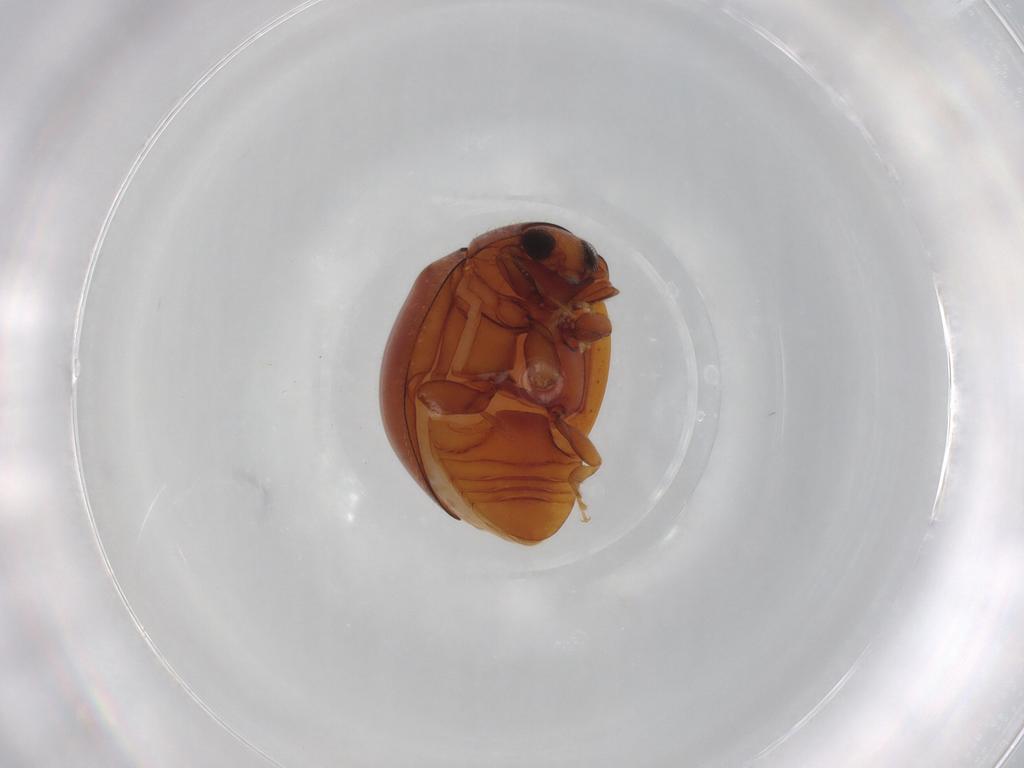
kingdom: Animalia
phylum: Arthropoda
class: Insecta
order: Coleoptera
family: Coccinellidae
